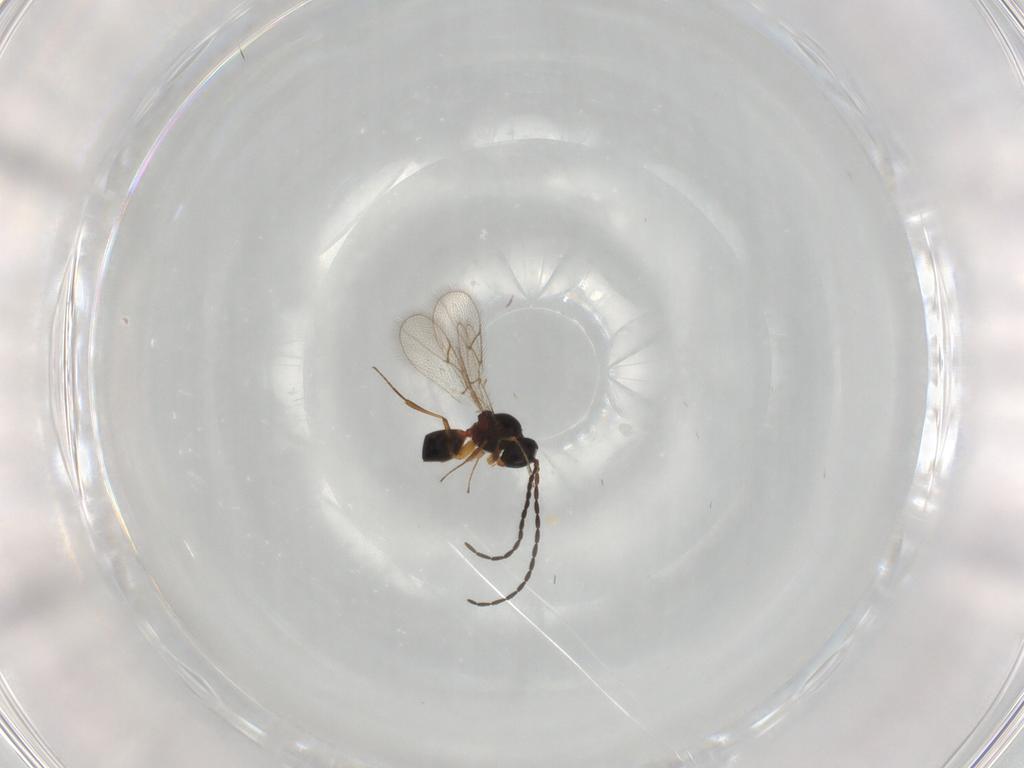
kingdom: Animalia
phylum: Arthropoda
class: Insecta
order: Hymenoptera
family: Figitidae
